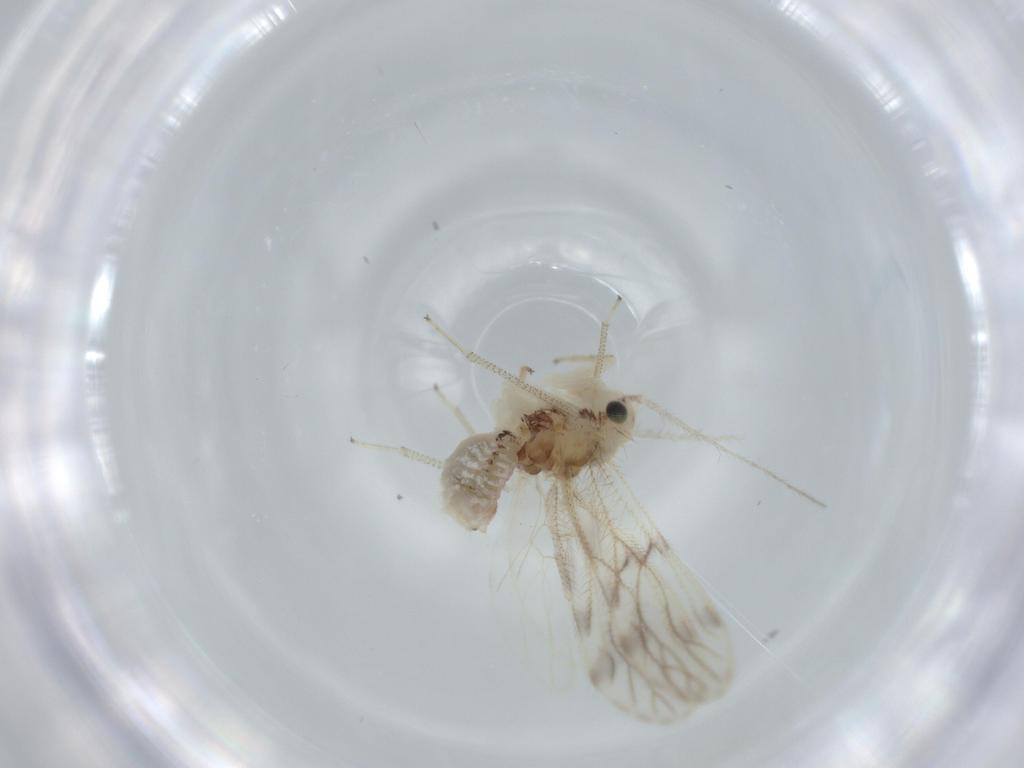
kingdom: Animalia
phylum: Arthropoda
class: Insecta
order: Psocodea
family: Pseudocaeciliidae
